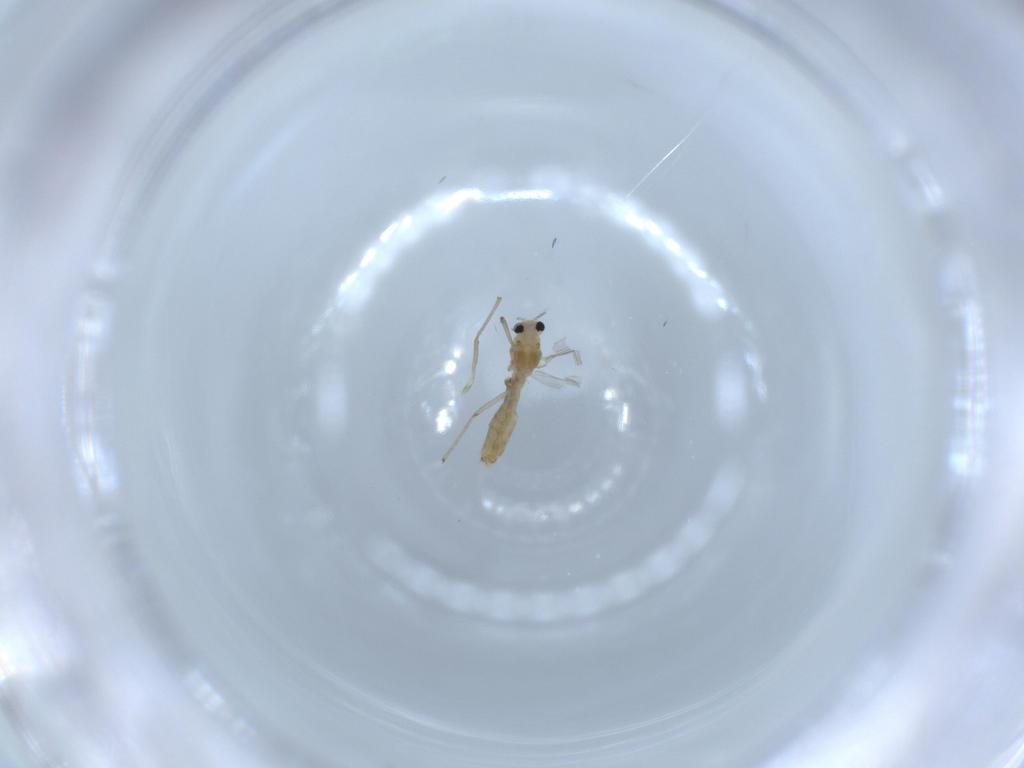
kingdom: Animalia
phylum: Arthropoda
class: Insecta
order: Diptera
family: Chironomidae
